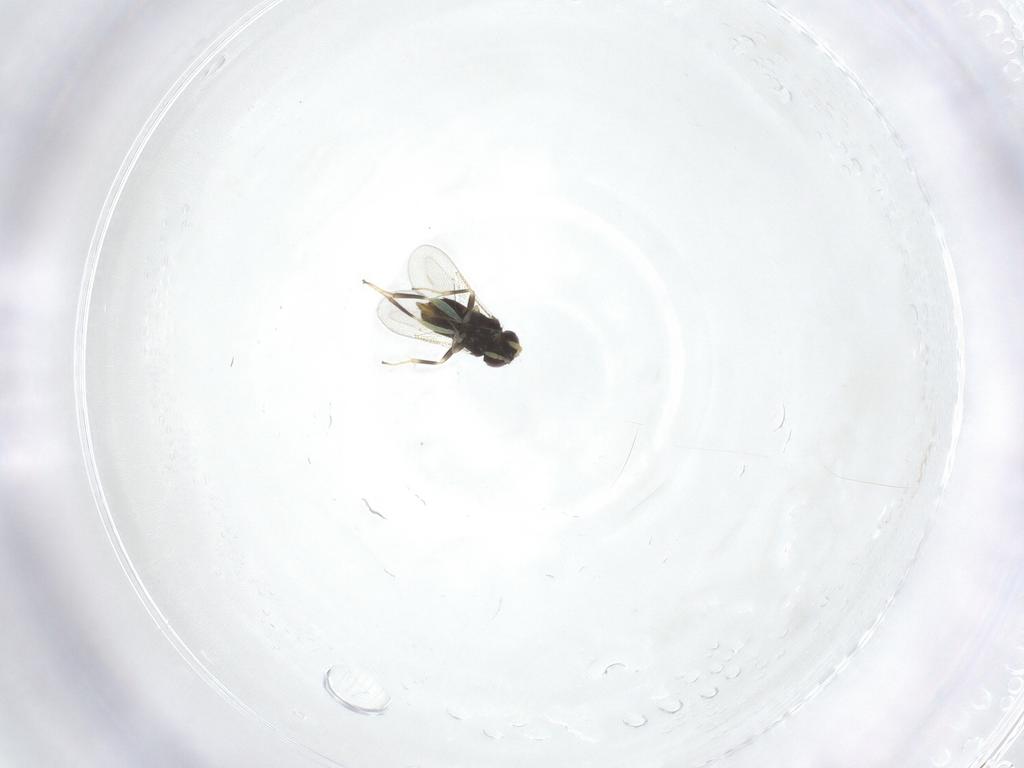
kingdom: Animalia
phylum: Arthropoda
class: Insecta
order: Hymenoptera
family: Aphelinidae
